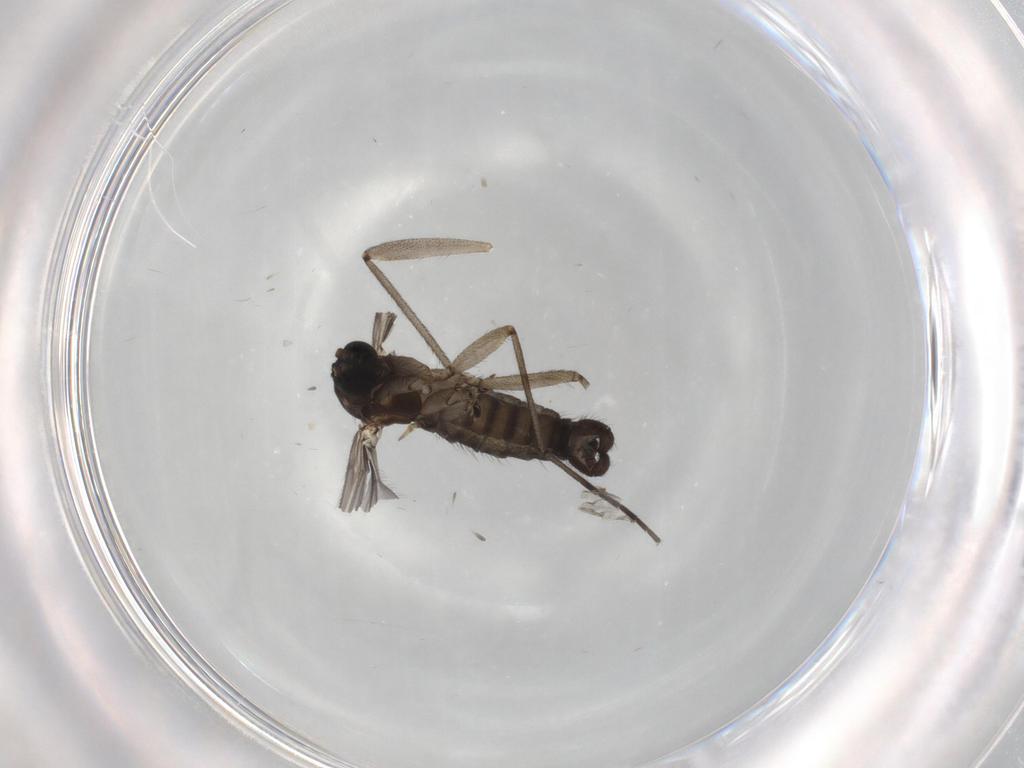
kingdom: Animalia
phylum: Arthropoda
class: Insecta
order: Diptera
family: Sciaridae
